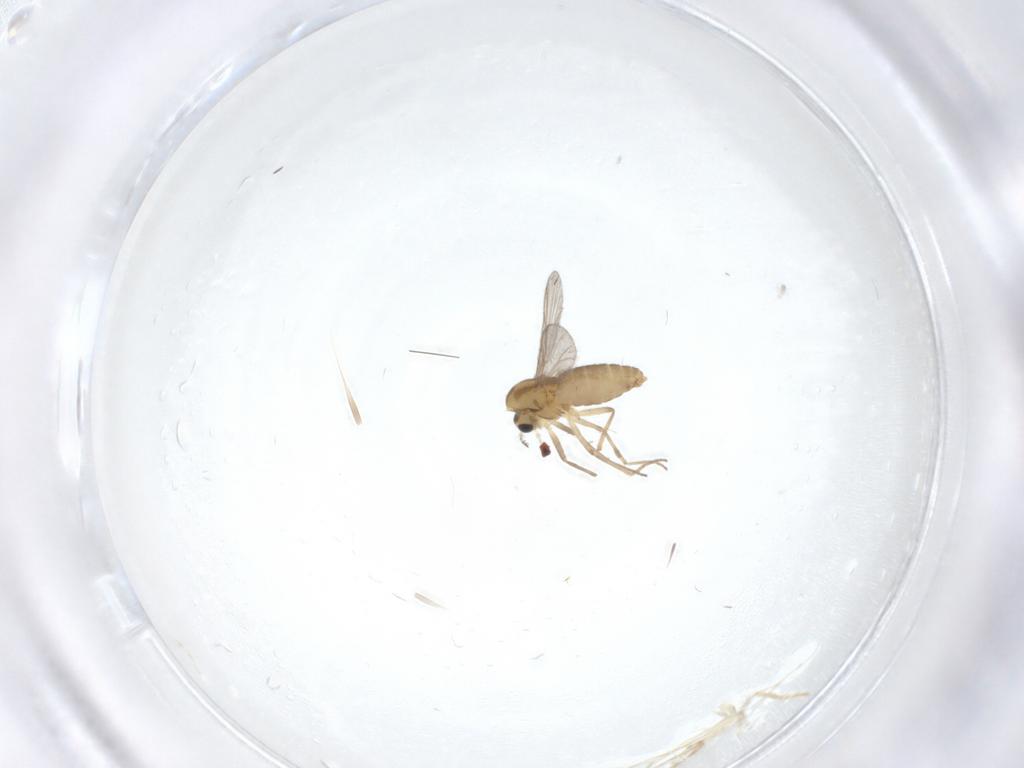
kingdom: Animalia
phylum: Arthropoda
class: Insecta
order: Diptera
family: Chironomidae
